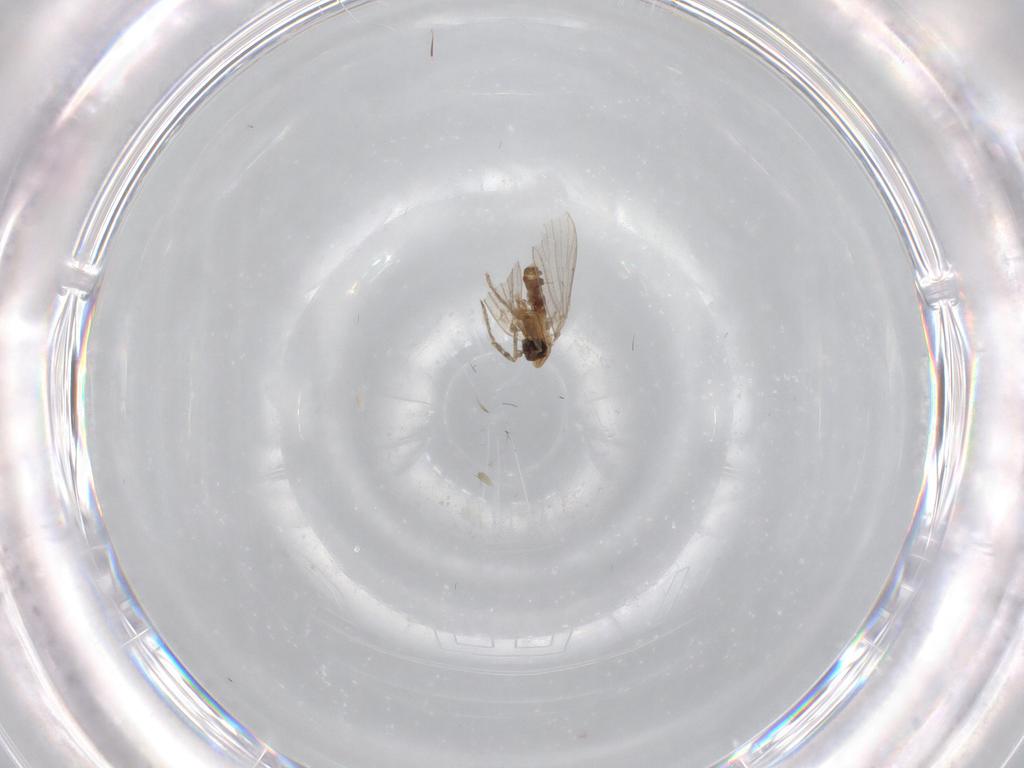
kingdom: Animalia
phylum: Arthropoda
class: Insecta
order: Diptera
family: Psychodidae
